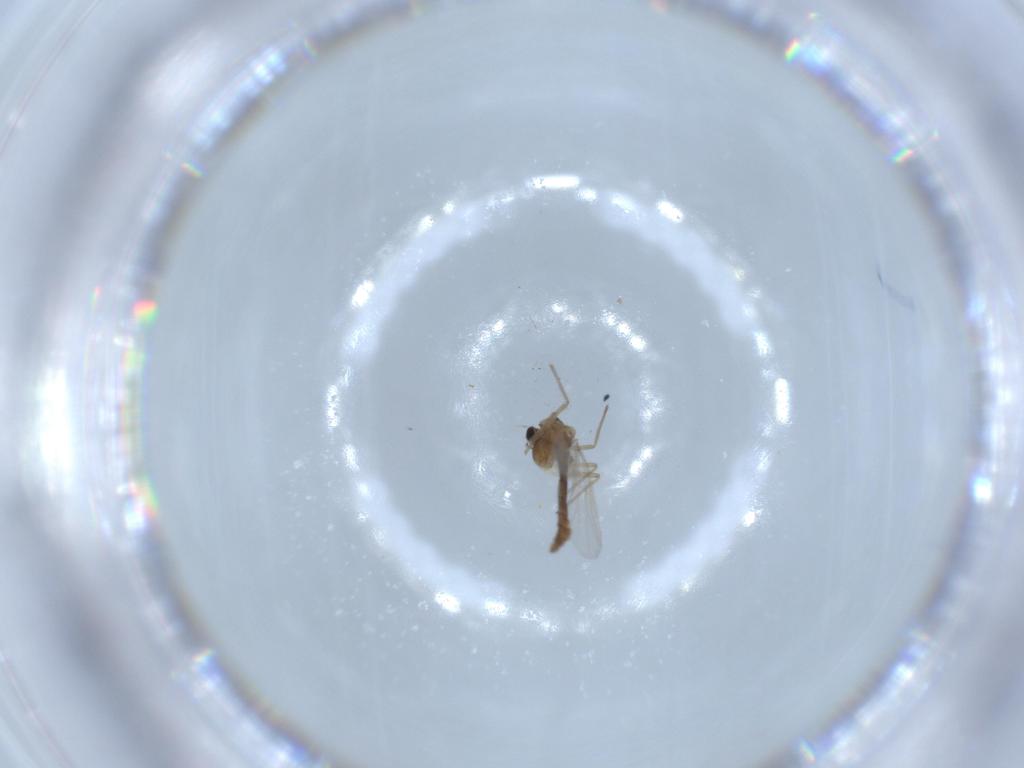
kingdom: Animalia
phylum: Arthropoda
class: Insecta
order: Diptera
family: Chironomidae
